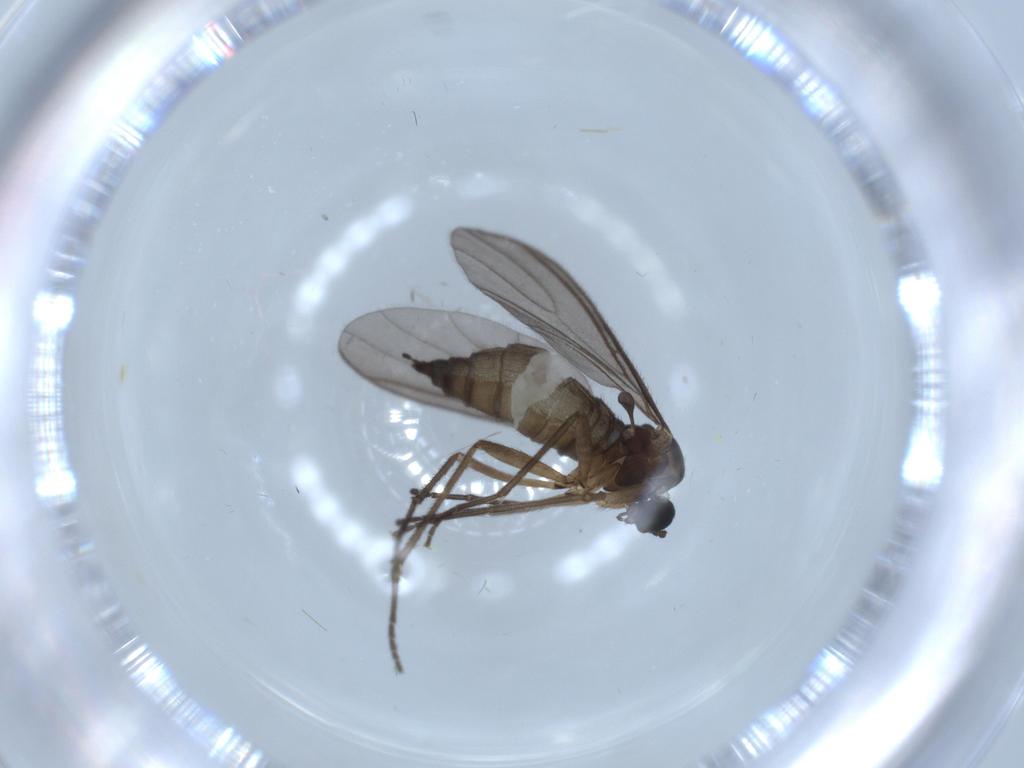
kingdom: Animalia
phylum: Arthropoda
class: Insecta
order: Diptera
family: Sciaridae
